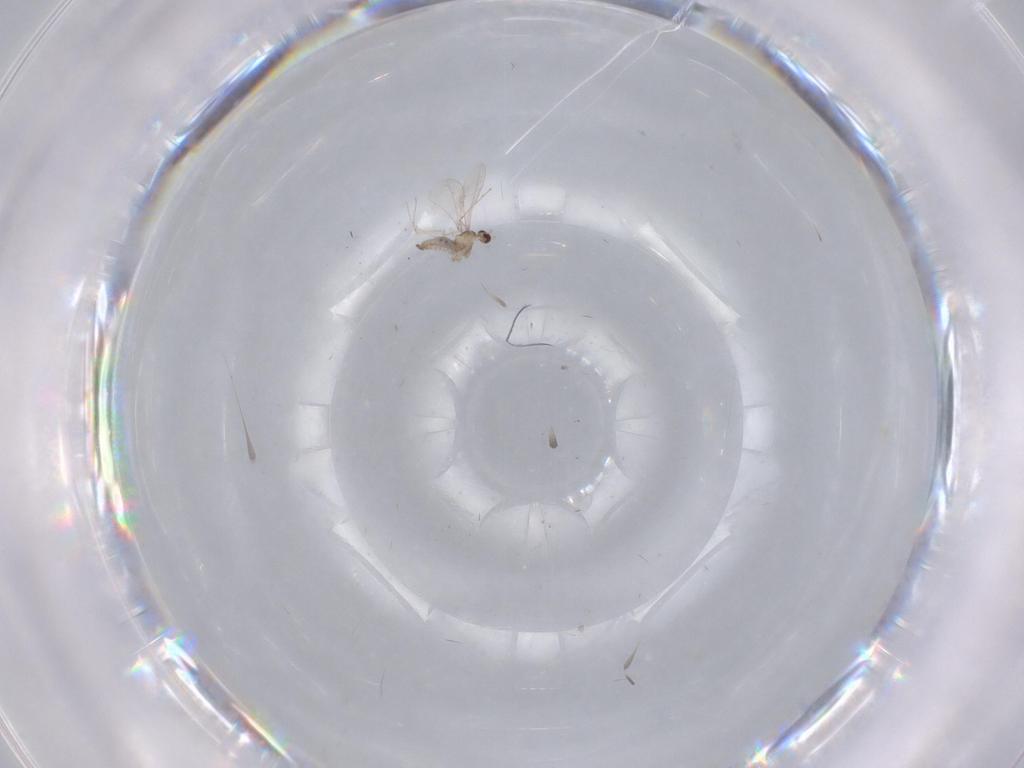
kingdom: Animalia
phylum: Arthropoda
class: Insecta
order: Diptera
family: Cecidomyiidae
